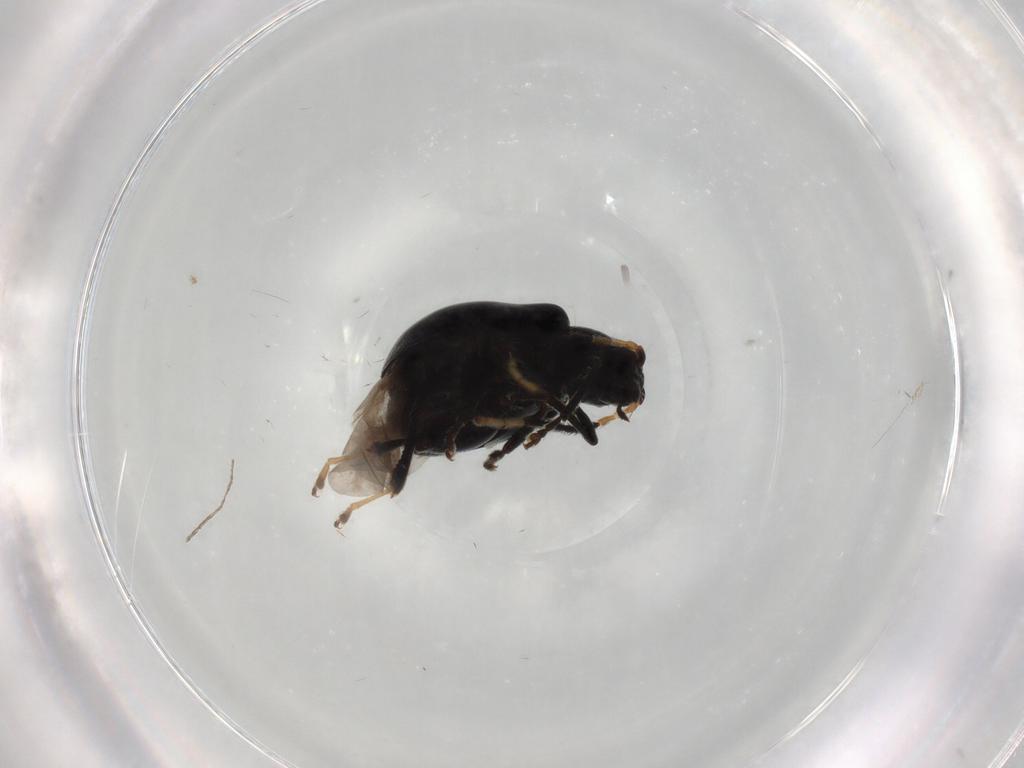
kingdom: Animalia
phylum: Arthropoda
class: Insecta
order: Coleoptera
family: Chrysomelidae
